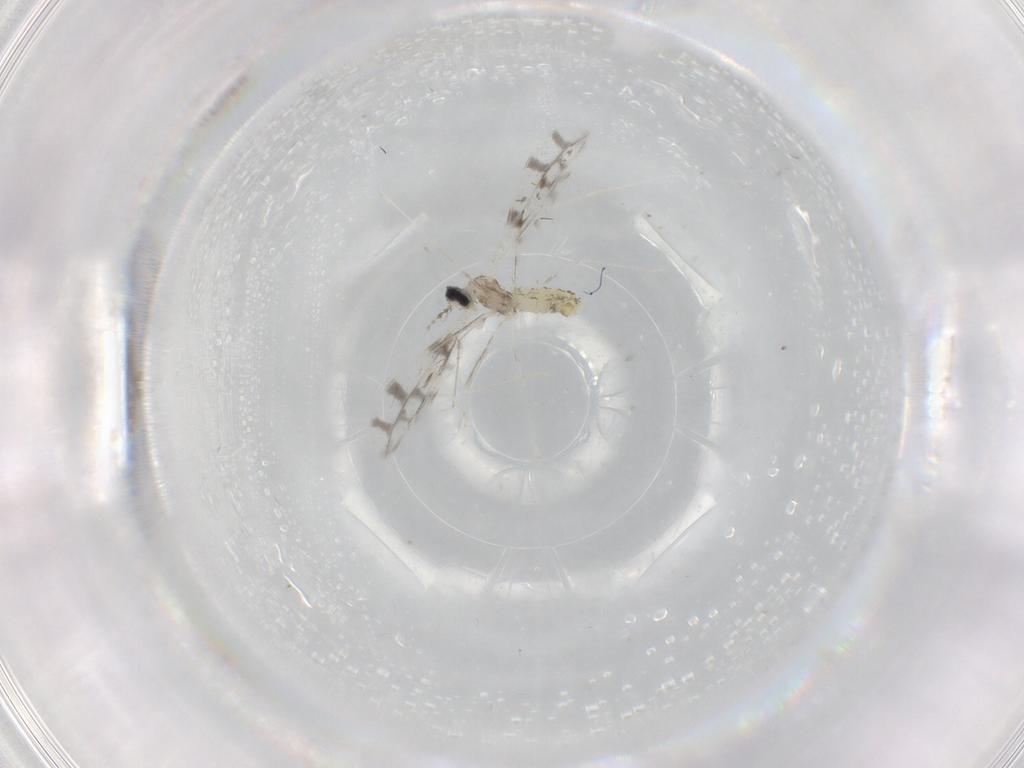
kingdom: Animalia
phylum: Arthropoda
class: Insecta
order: Diptera
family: Cecidomyiidae
